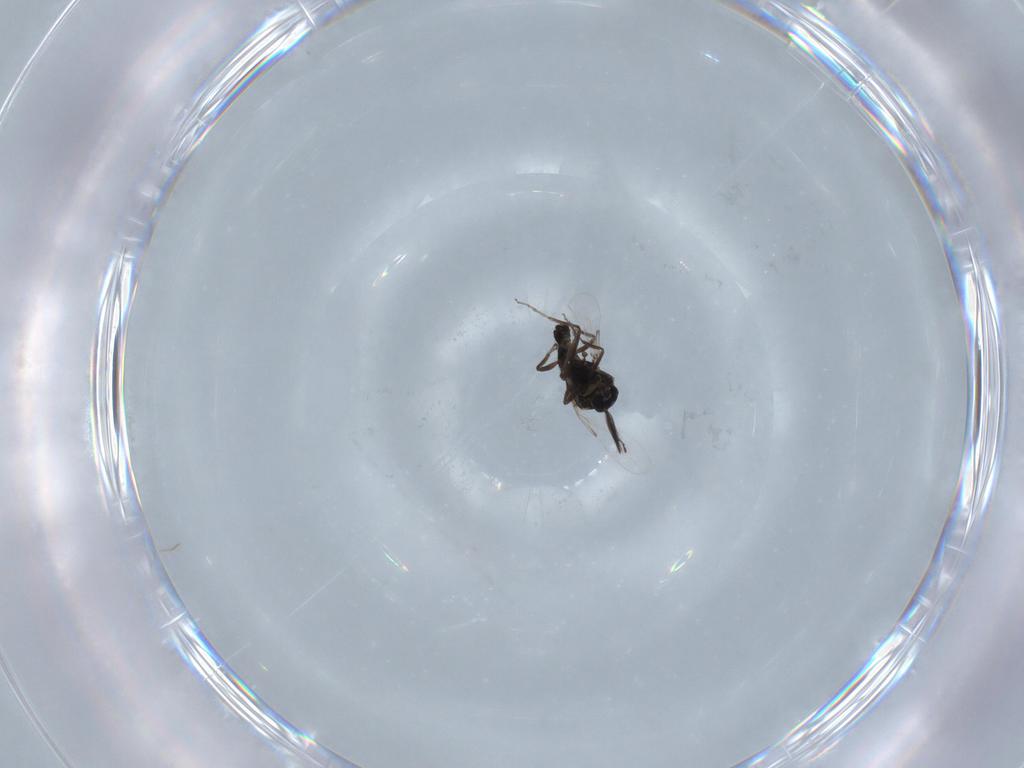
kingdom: Animalia
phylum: Arthropoda
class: Insecta
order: Diptera
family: Ceratopogonidae
